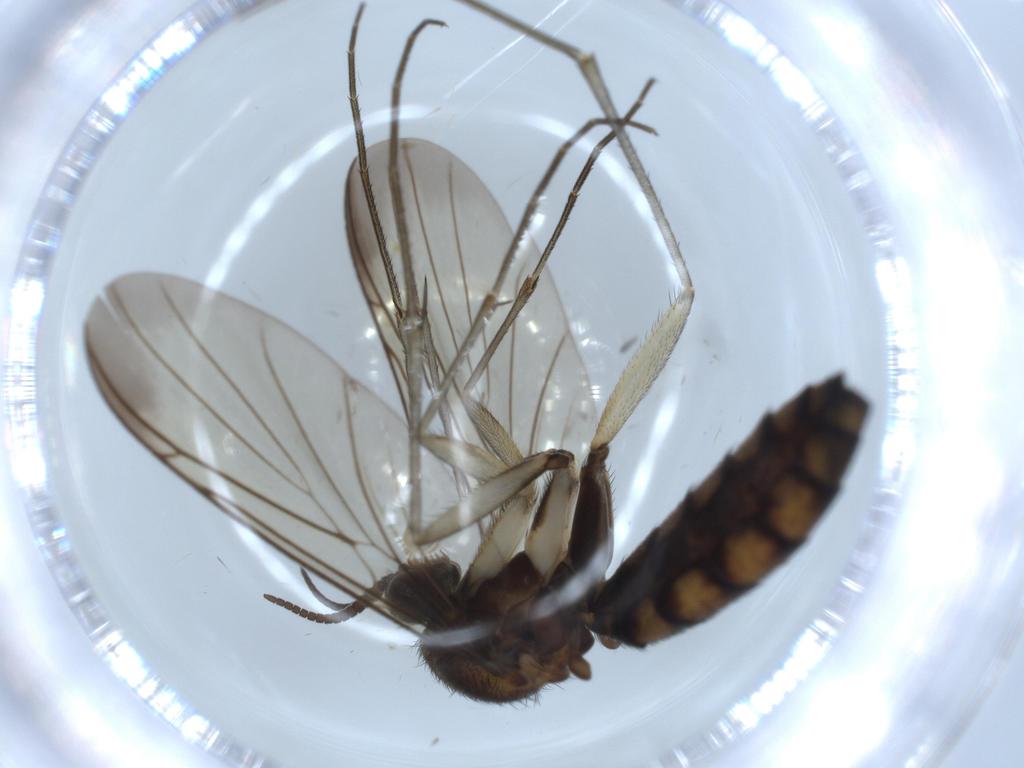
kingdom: Animalia
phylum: Arthropoda
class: Insecta
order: Diptera
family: Keroplatidae
